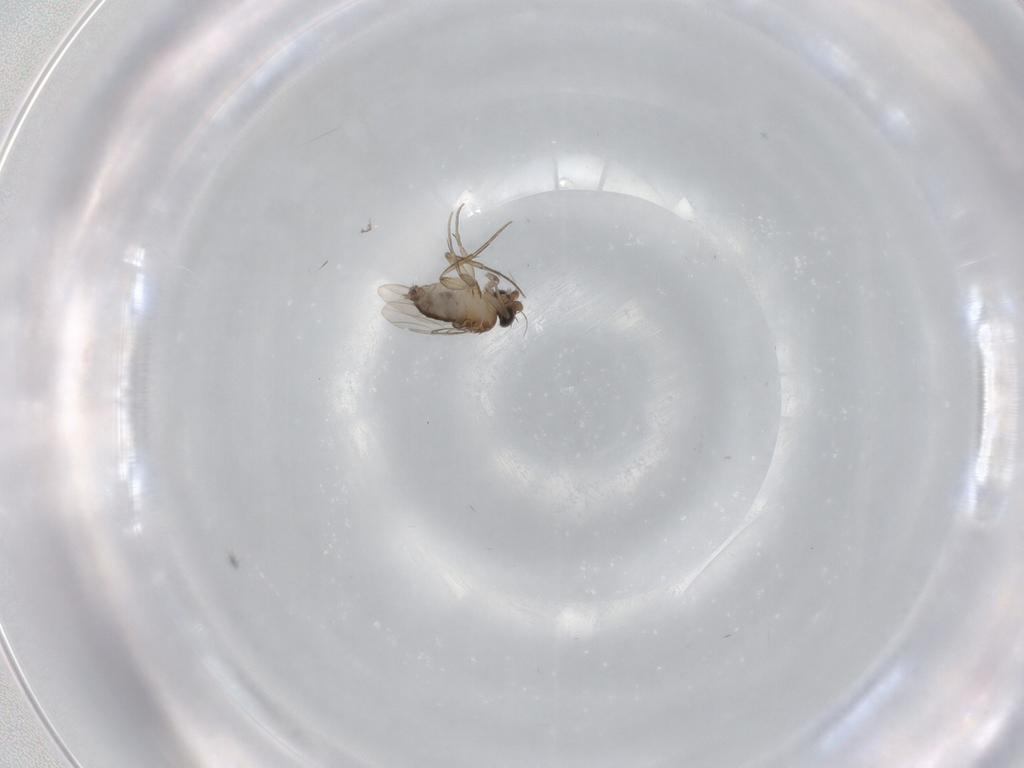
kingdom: Animalia
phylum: Arthropoda
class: Insecta
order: Diptera
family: Phoridae
